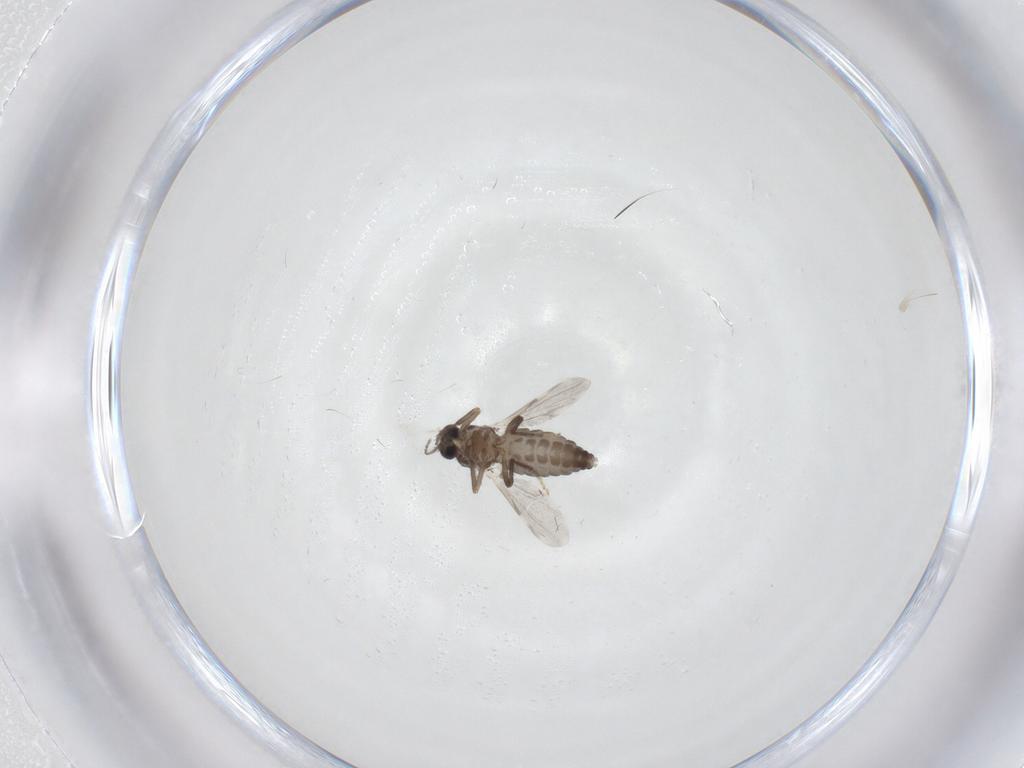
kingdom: Animalia
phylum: Arthropoda
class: Insecta
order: Diptera
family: Ceratopogonidae
